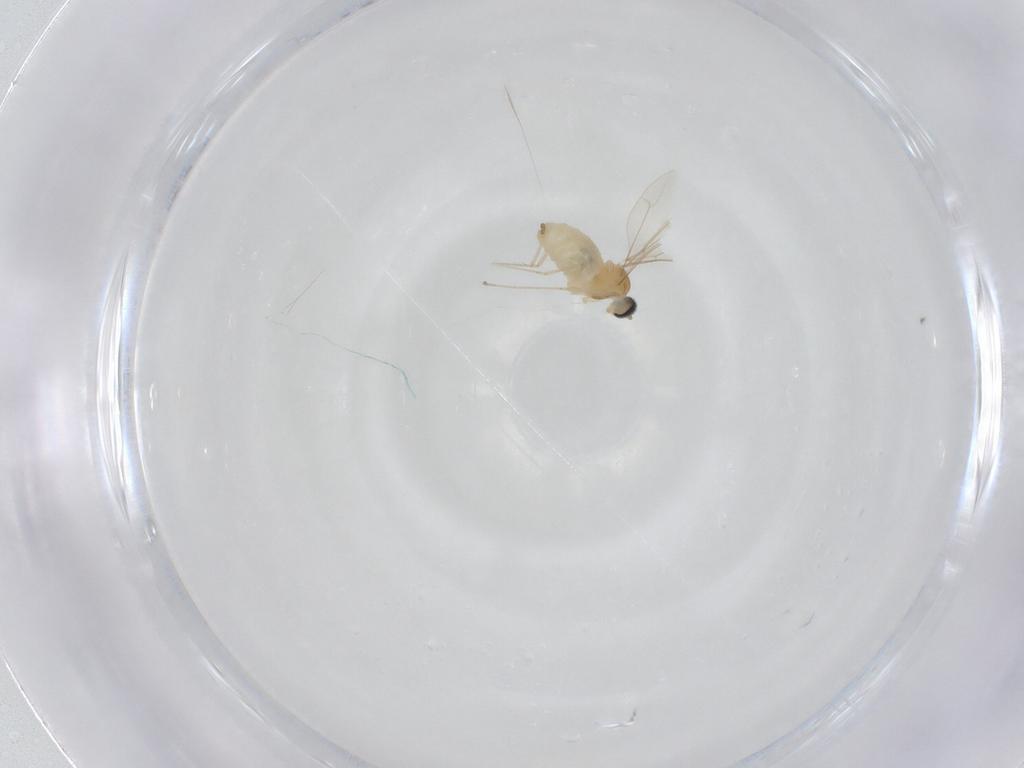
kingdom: Animalia
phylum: Arthropoda
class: Insecta
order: Diptera
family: Cecidomyiidae
